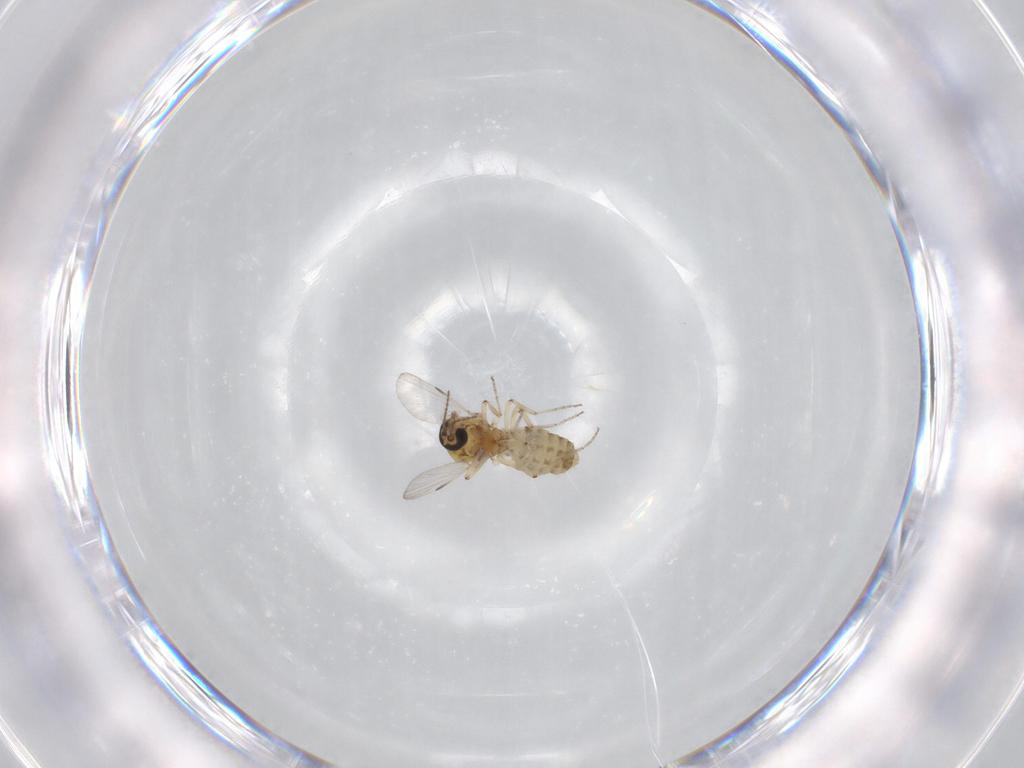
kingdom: Animalia
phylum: Arthropoda
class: Insecta
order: Diptera
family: Ceratopogonidae
